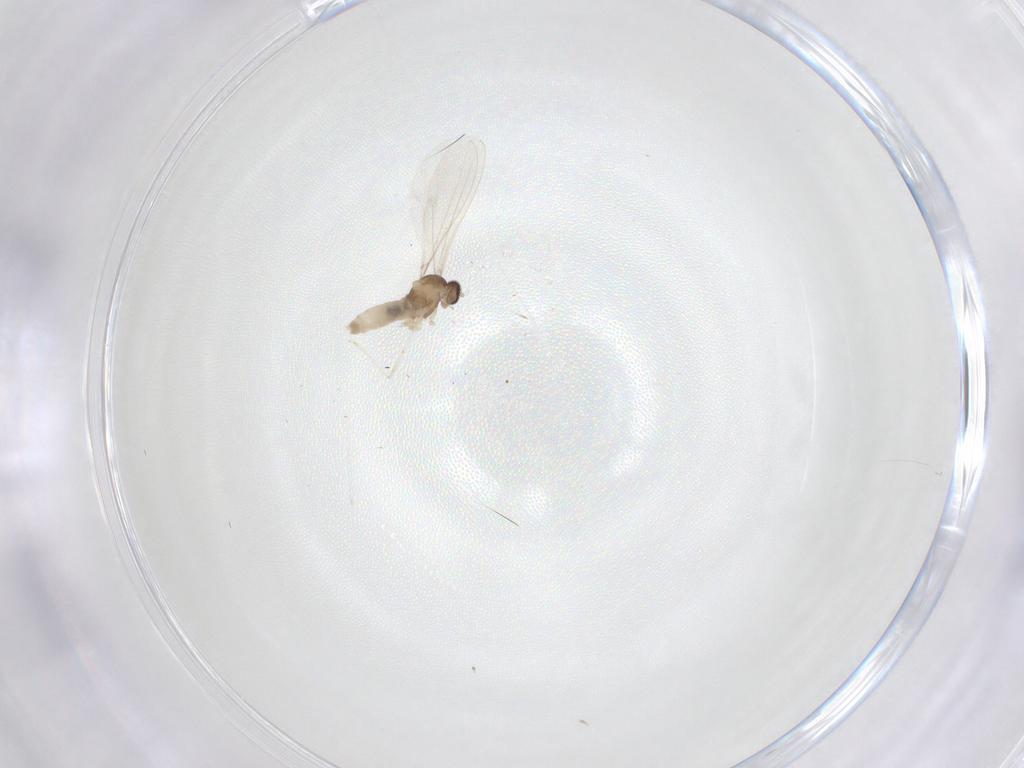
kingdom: Animalia
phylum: Arthropoda
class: Insecta
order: Diptera
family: Cecidomyiidae
